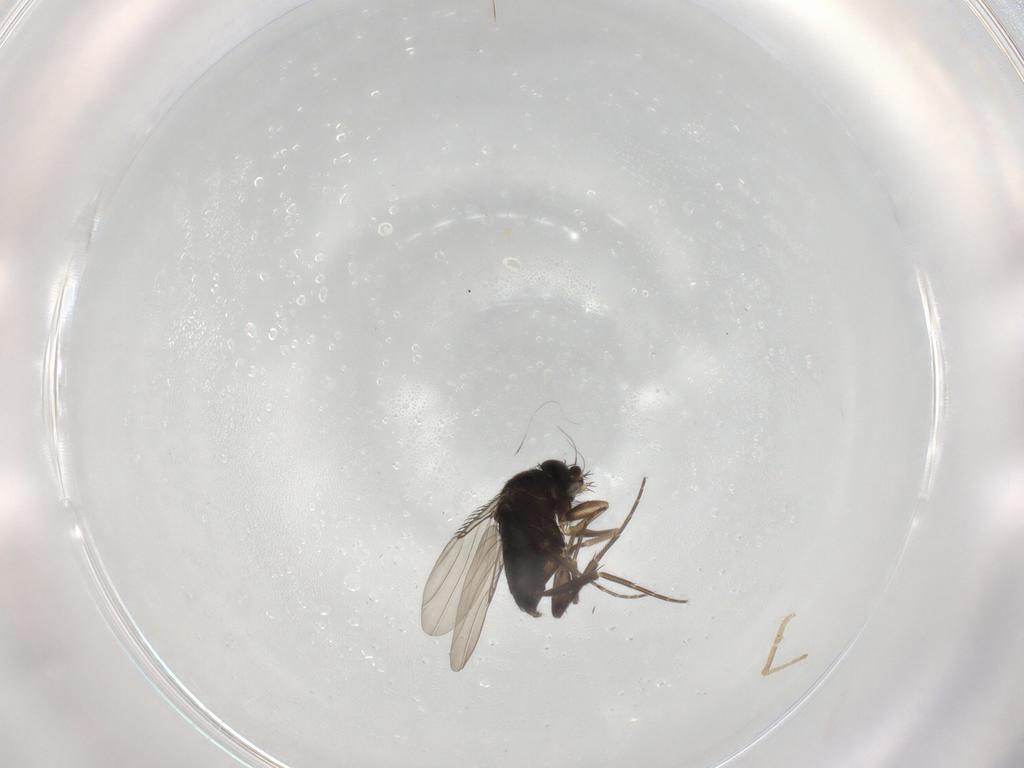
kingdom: Animalia
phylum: Arthropoda
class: Insecta
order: Diptera
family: Phoridae
